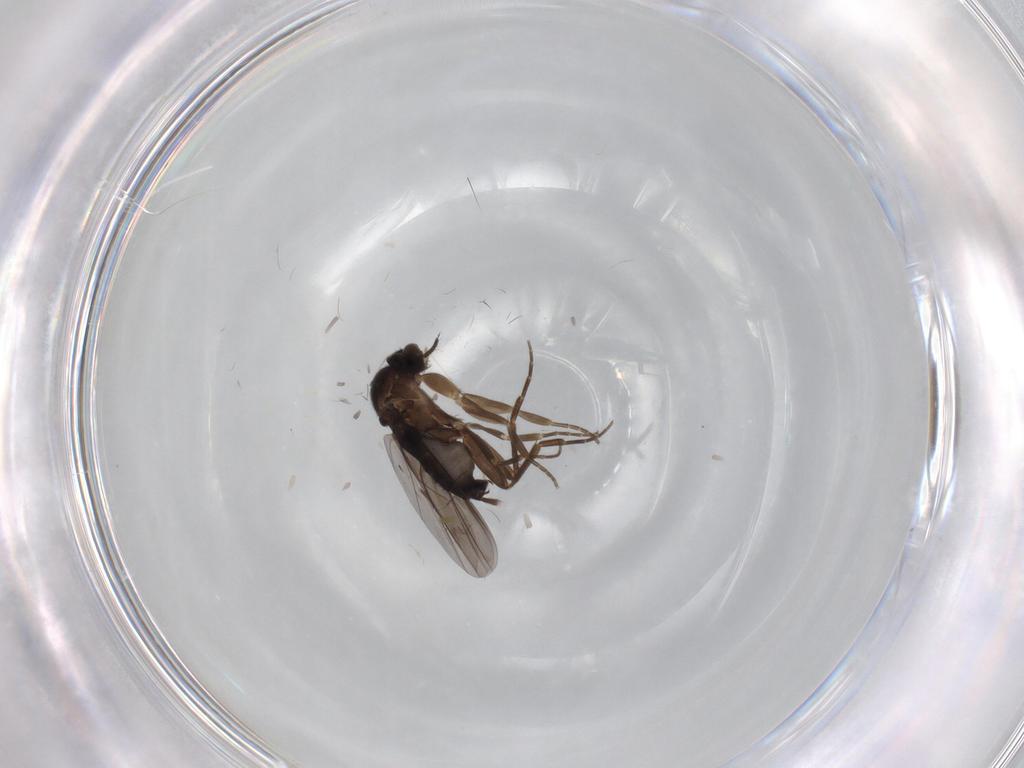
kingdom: Animalia
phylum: Arthropoda
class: Insecta
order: Diptera
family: Phoridae
